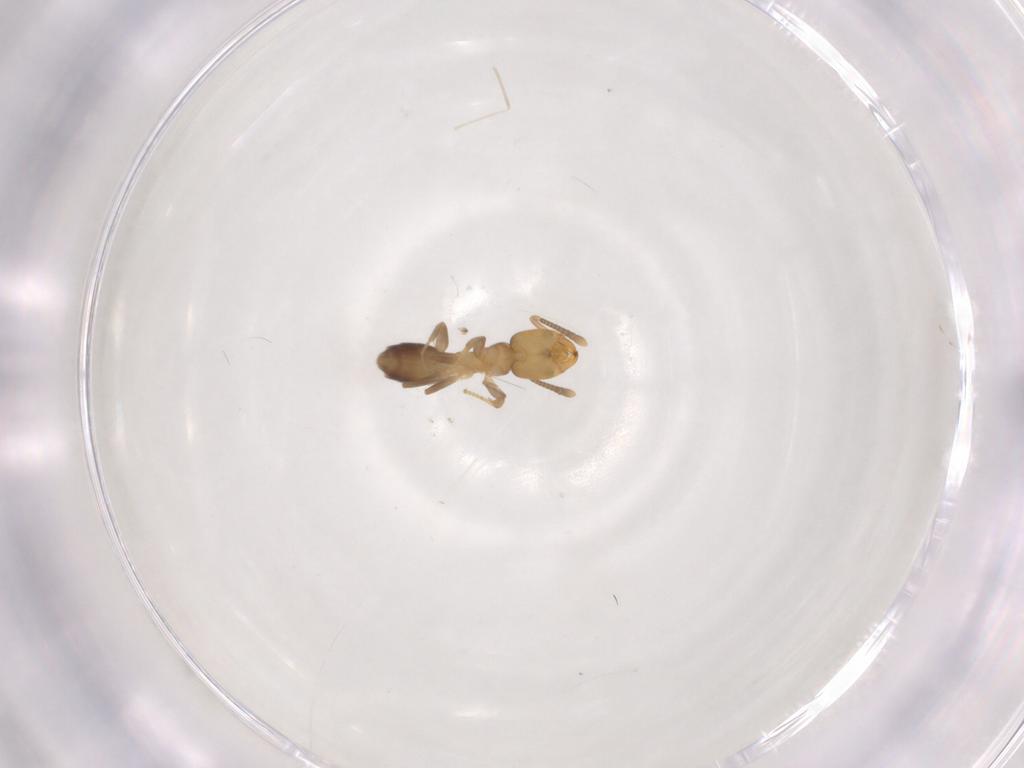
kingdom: Animalia
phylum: Arthropoda
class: Insecta
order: Hymenoptera
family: Formicidae
